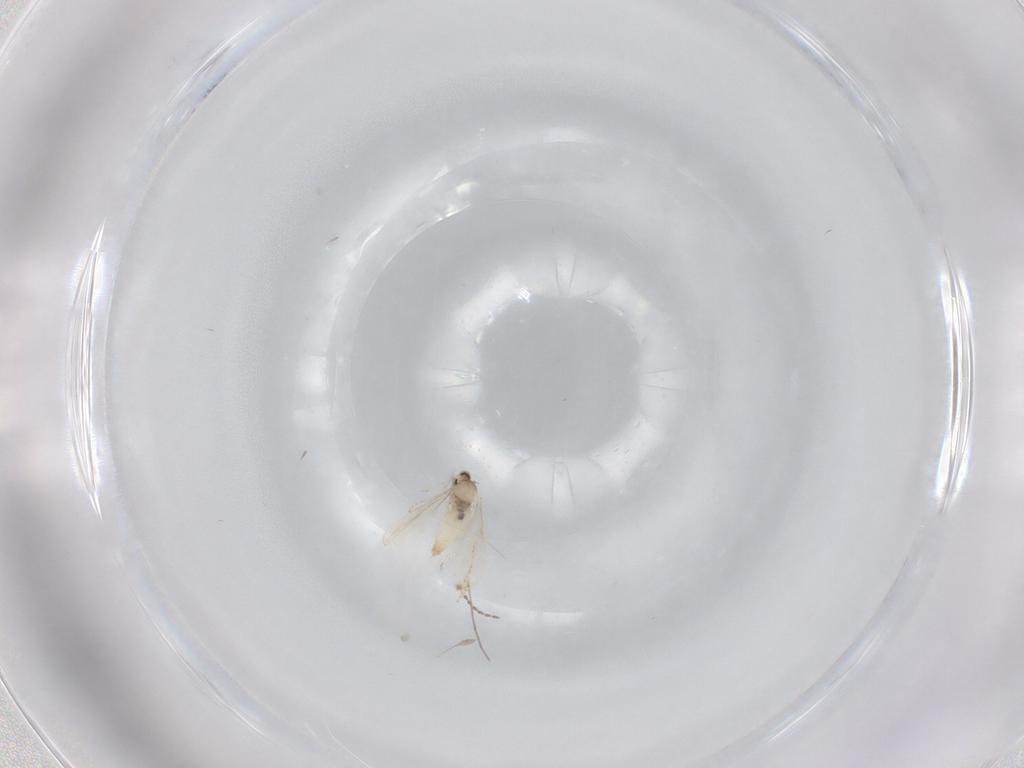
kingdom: Animalia
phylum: Arthropoda
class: Insecta
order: Diptera
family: Cecidomyiidae
